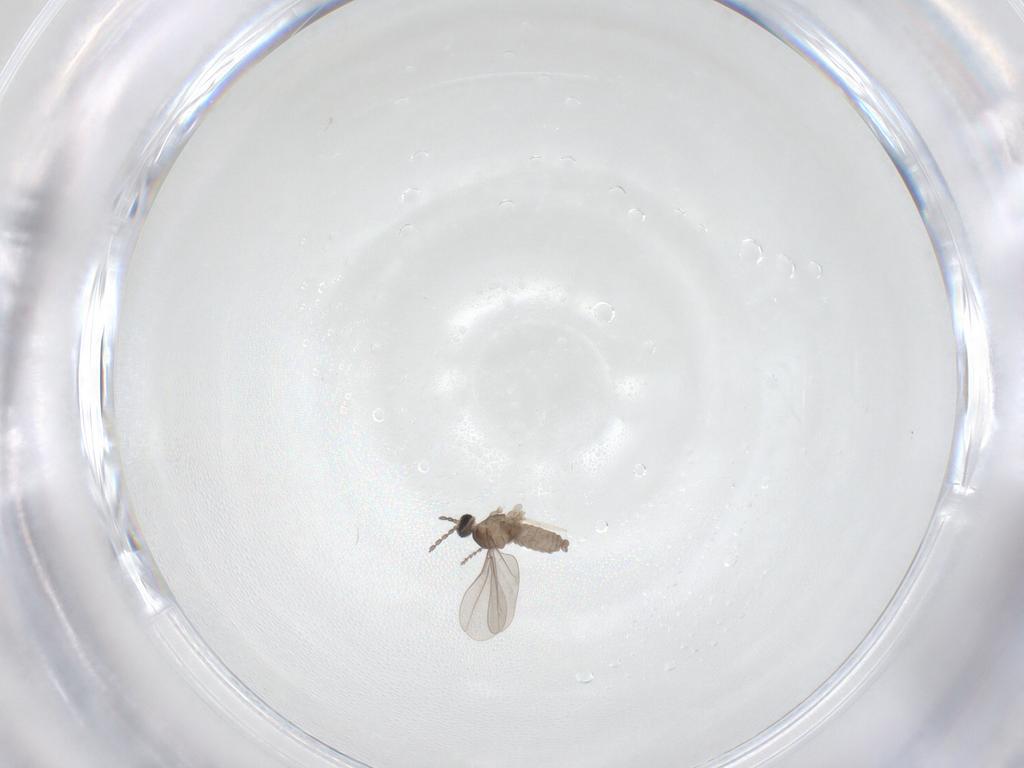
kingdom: Animalia
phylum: Arthropoda
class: Insecta
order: Diptera
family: Cecidomyiidae
